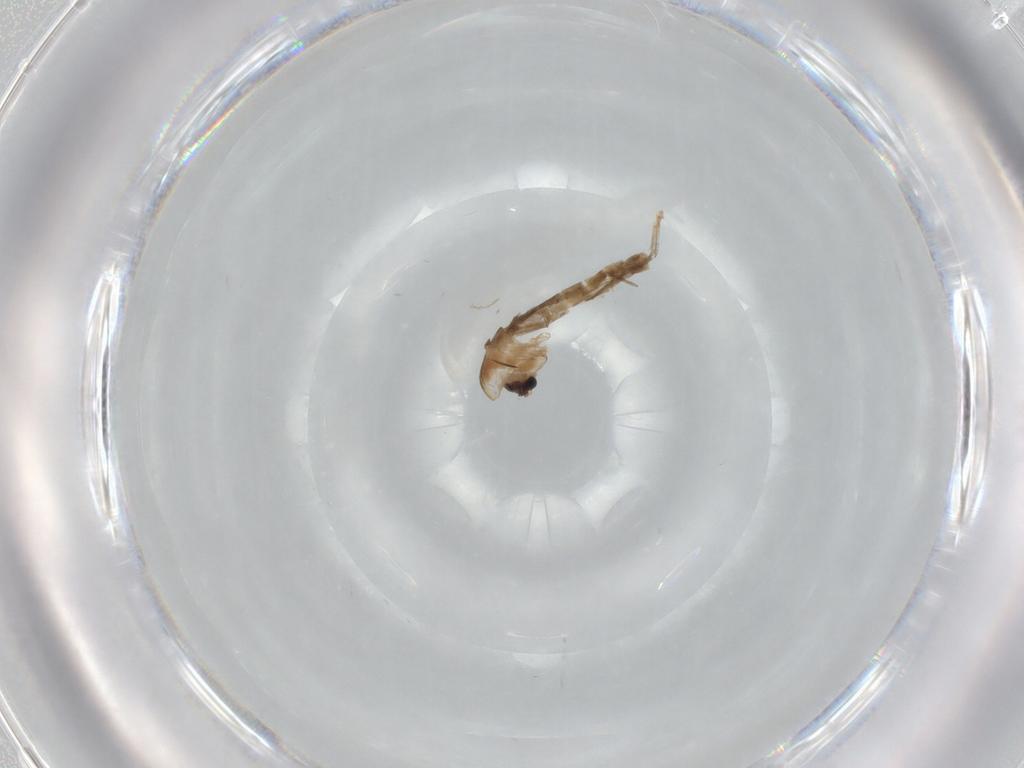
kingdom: Animalia
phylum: Arthropoda
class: Insecta
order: Diptera
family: Chironomidae
